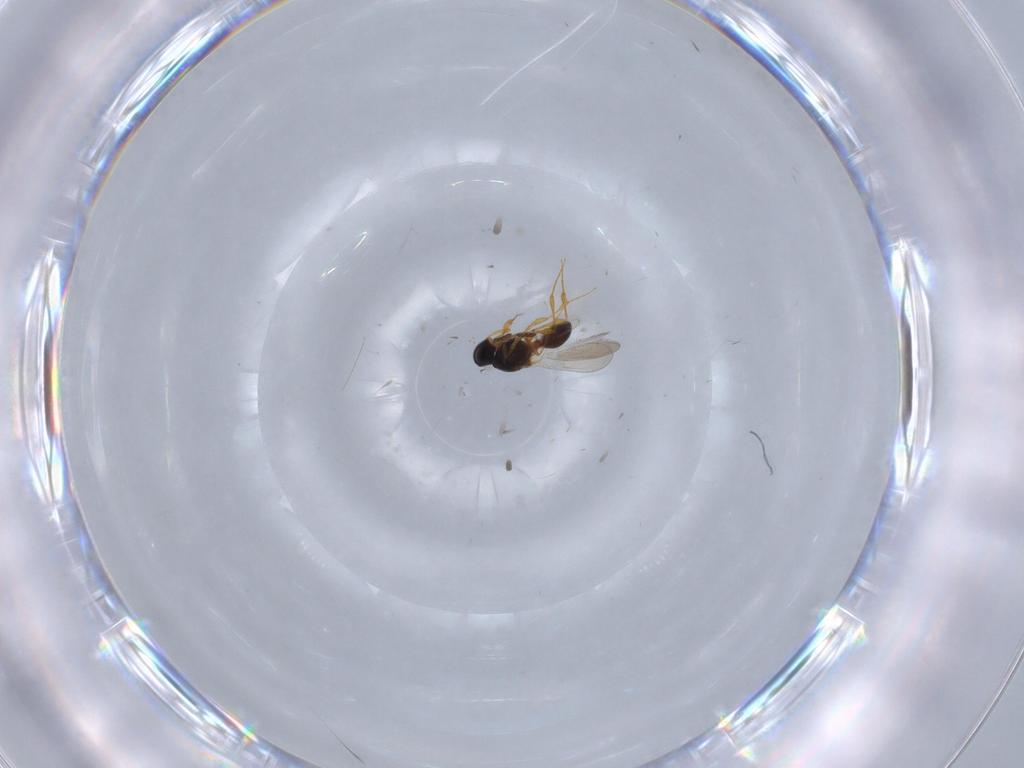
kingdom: Animalia
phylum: Arthropoda
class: Insecta
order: Hymenoptera
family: Platygastridae
